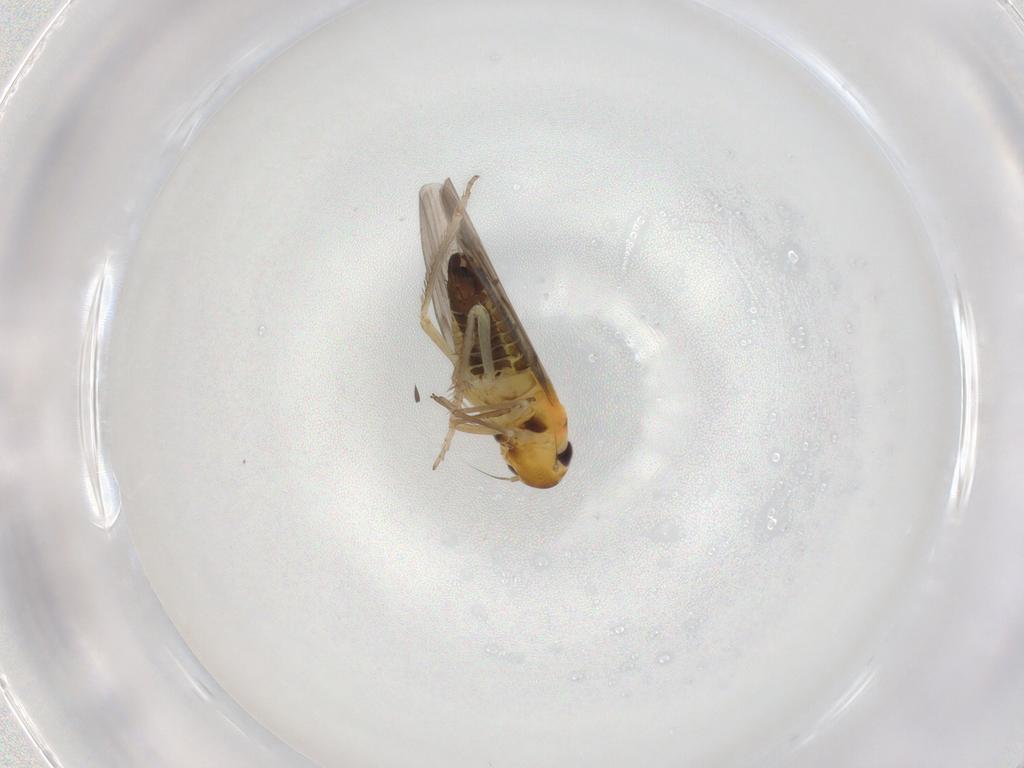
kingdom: Animalia
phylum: Arthropoda
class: Insecta
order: Hemiptera
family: Cicadellidae
